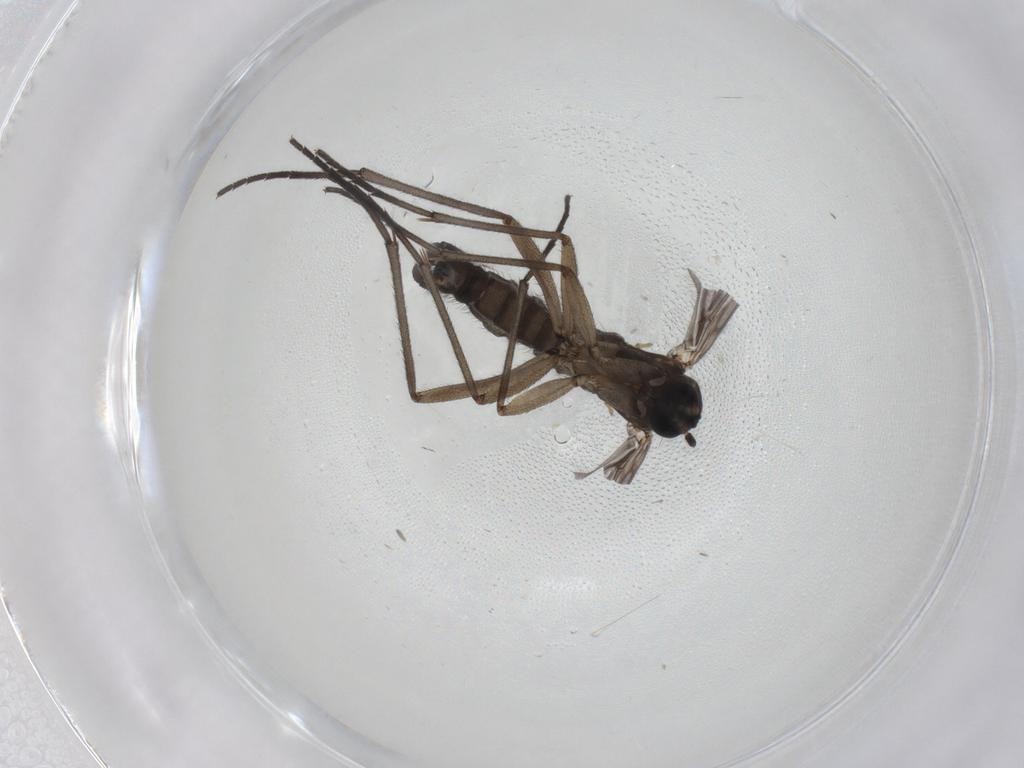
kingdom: Animalia
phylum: Arthropoda
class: Insecta
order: Diptera
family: Sciaridae
